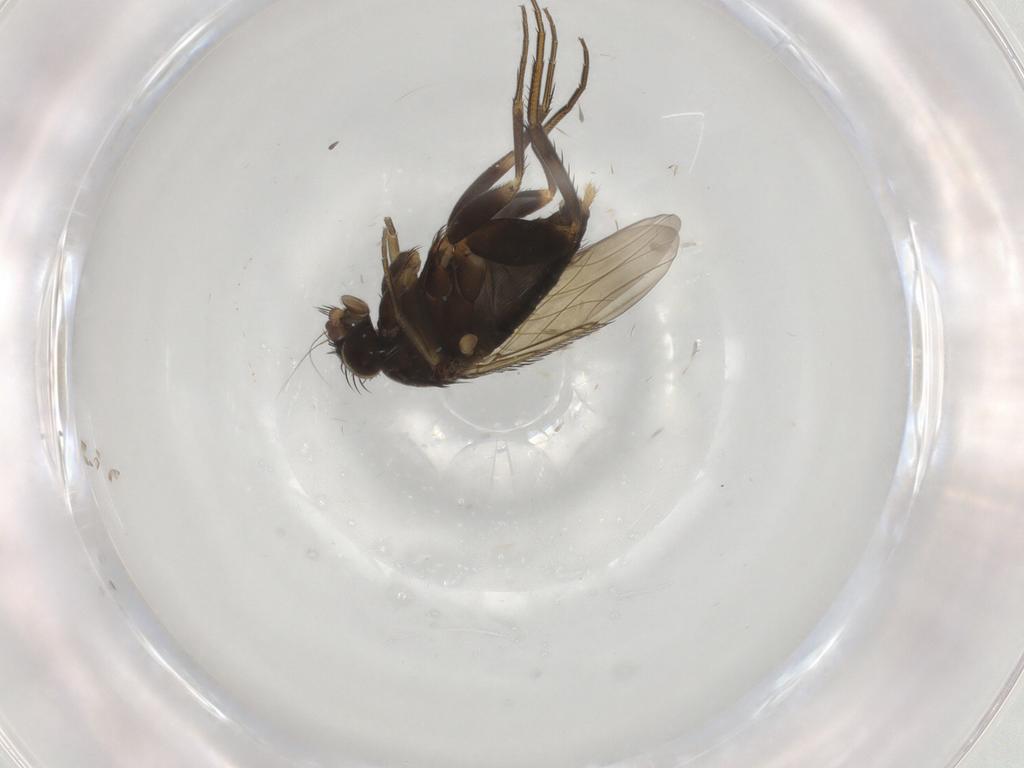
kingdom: Animalia
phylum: Arthropoda
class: Insecta
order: Diptera
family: Phoridae
